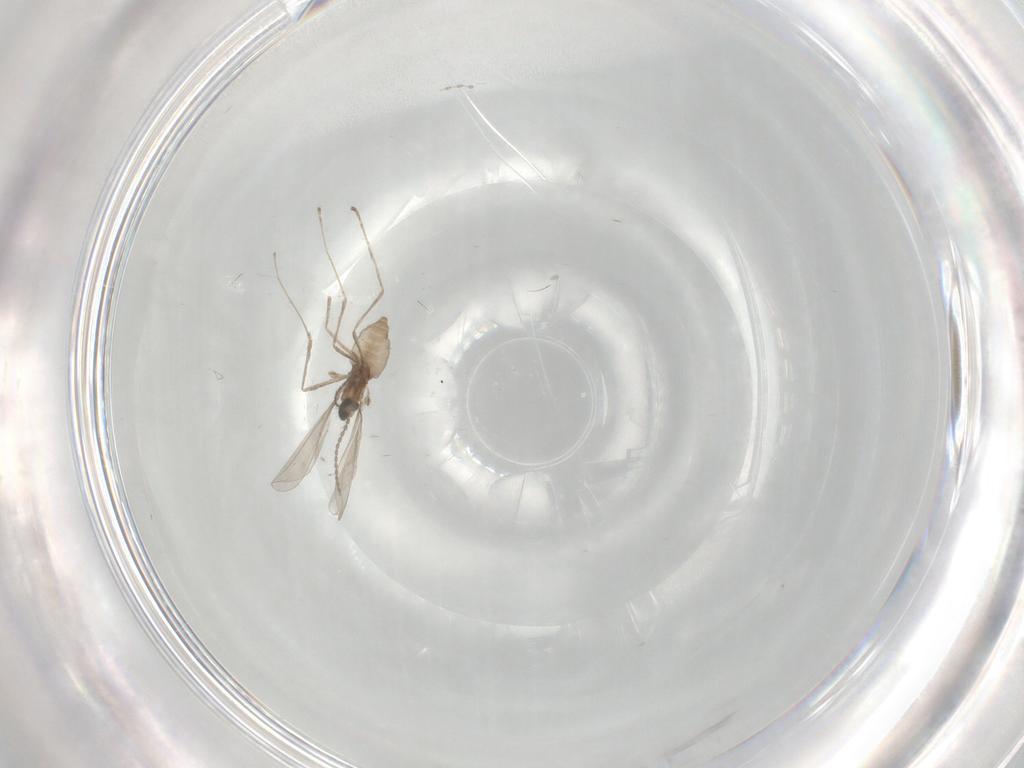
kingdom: Animalia
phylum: Arthropoda
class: Insecta
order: Diptera
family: Cecidomyiidae
